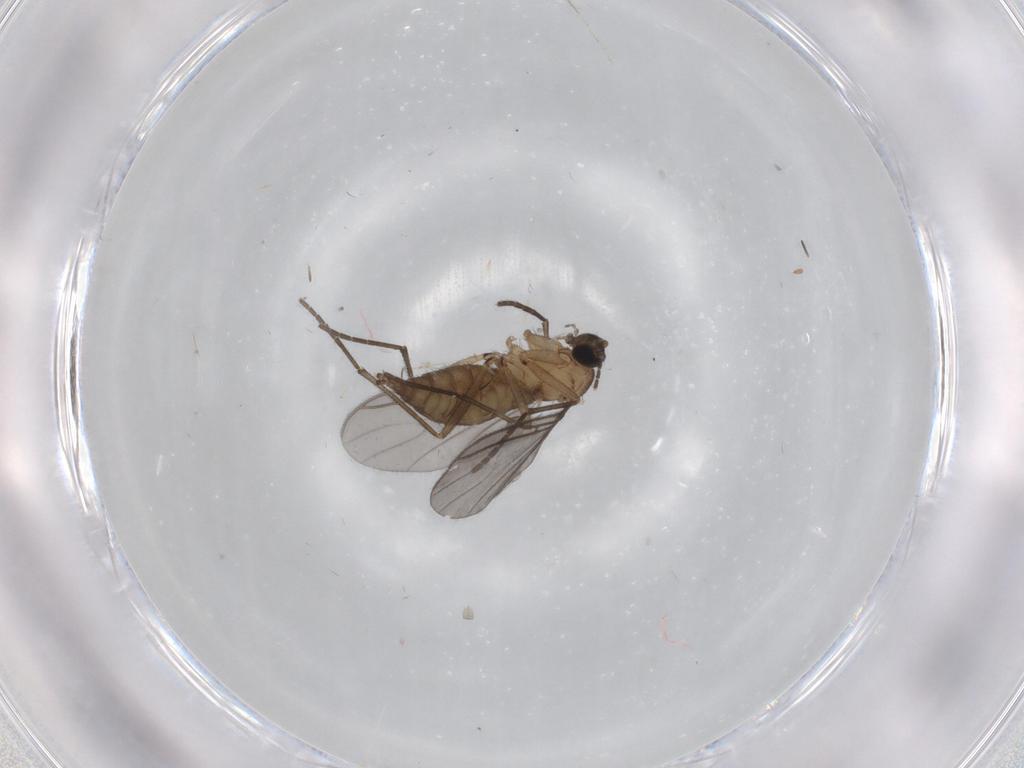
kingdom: Animalia
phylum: Arthropoda
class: Insecta
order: Diptera
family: Sciaridae
